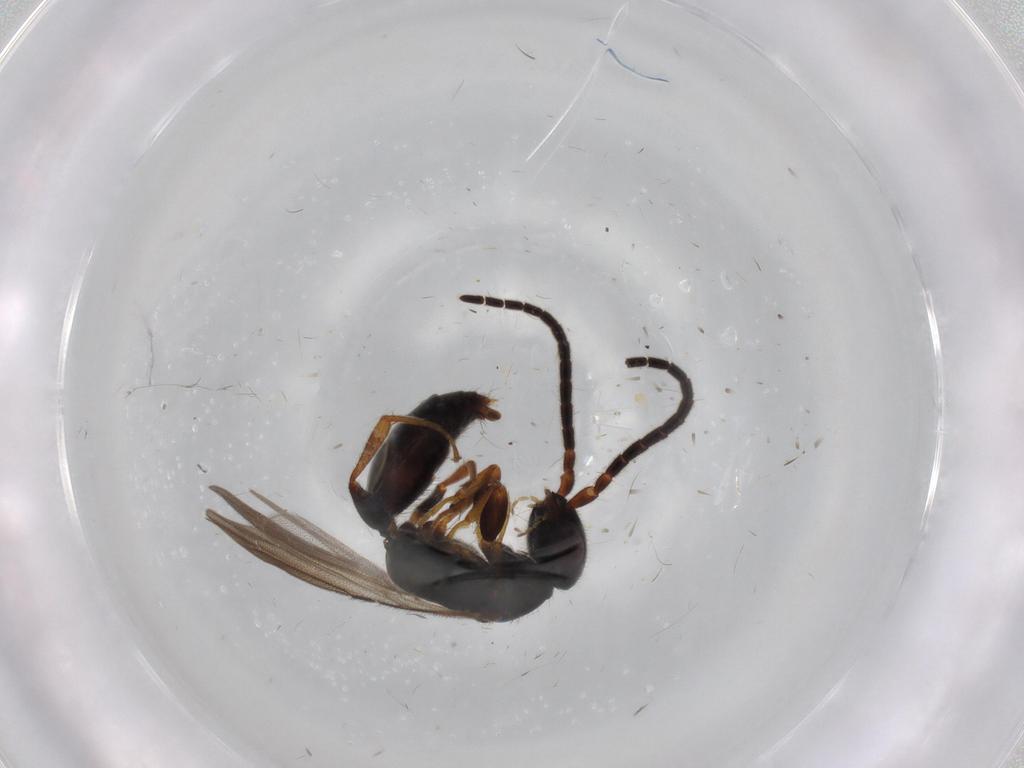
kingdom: Animalia
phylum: Arthropoda
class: Insecta
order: Hymenoptera
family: Bethylidae
